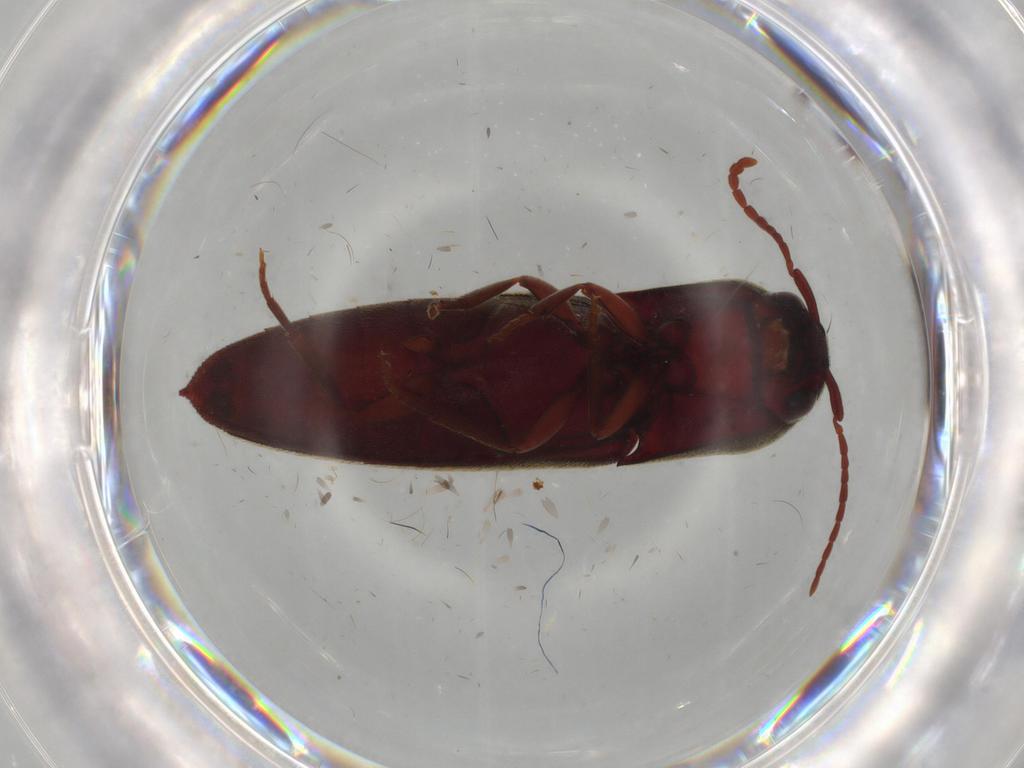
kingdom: Animalia
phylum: Arthropoda
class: Insecta
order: Coleoptera
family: Eucnemidae
